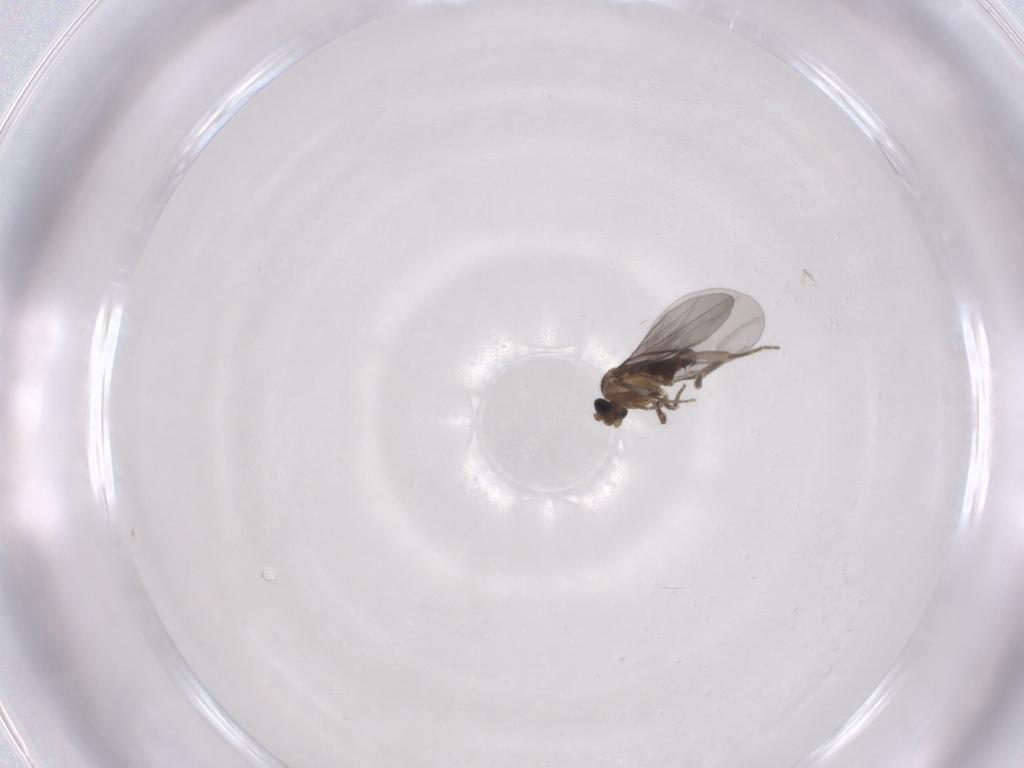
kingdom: Animalia
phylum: Arthropoda
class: Insecta
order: Diptera
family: Phoridae
